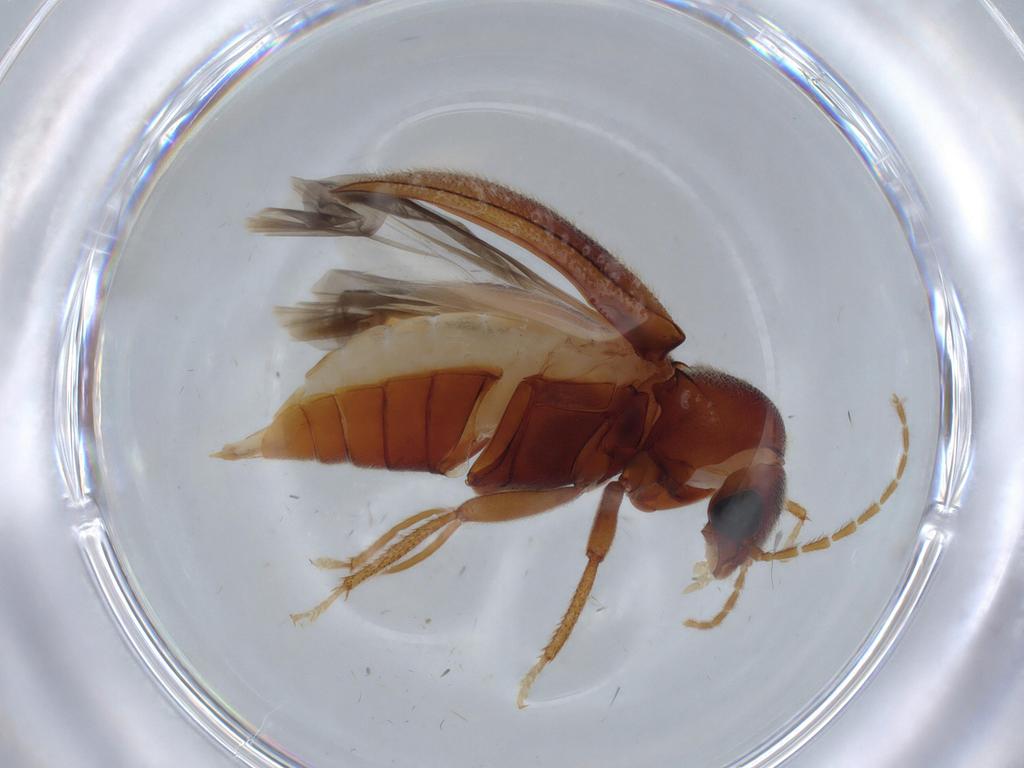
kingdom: Animalia
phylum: Arthropoda
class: Insecta
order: Coleoptera
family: Ptilodactylidae
